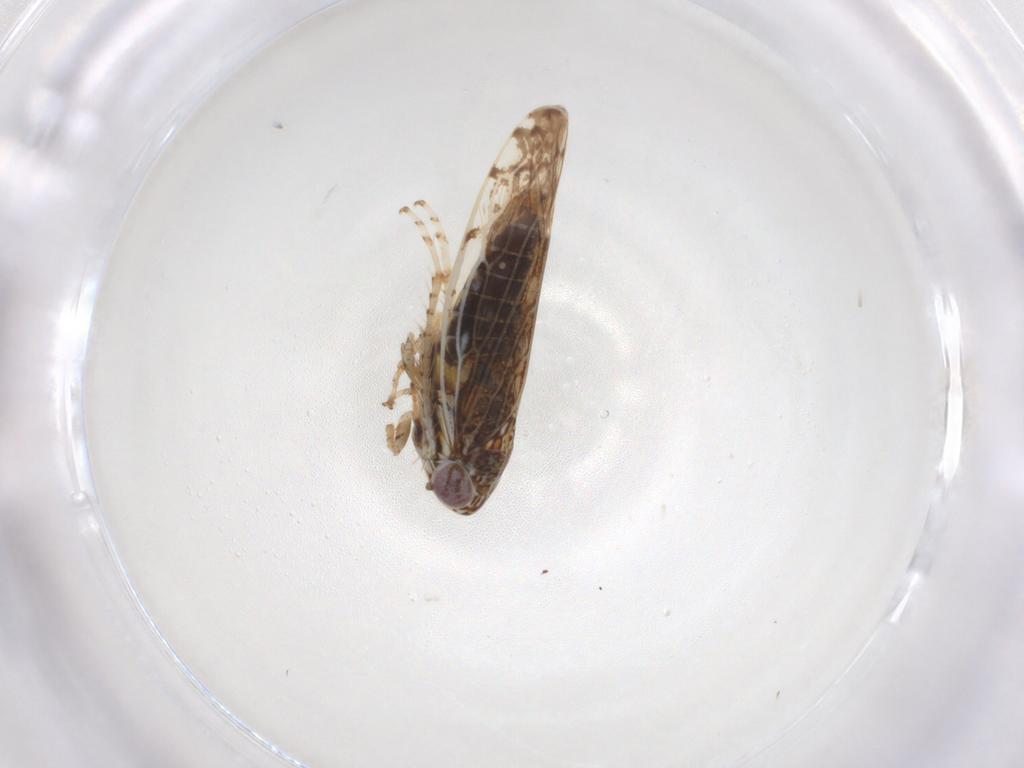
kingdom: Animalia
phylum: Arthropoda
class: Insecta
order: Hemiptera
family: Cicadellidae
